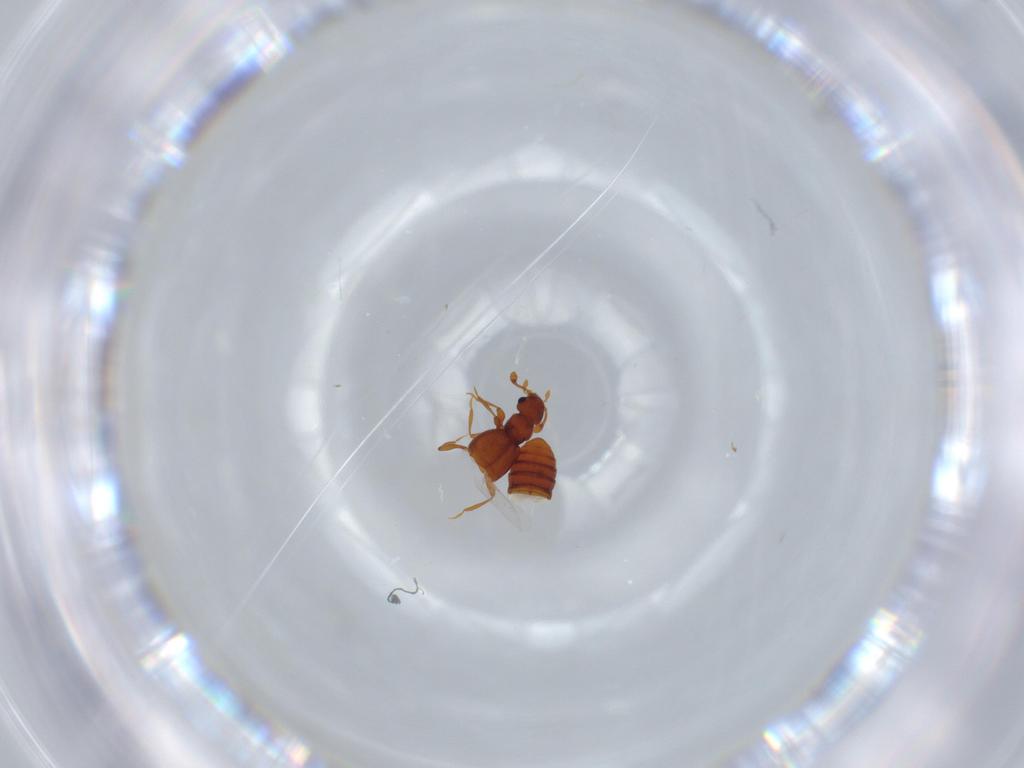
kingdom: Animalia
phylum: Arthropoda
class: Insecta
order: Coleoptera
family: Staphylinidae
